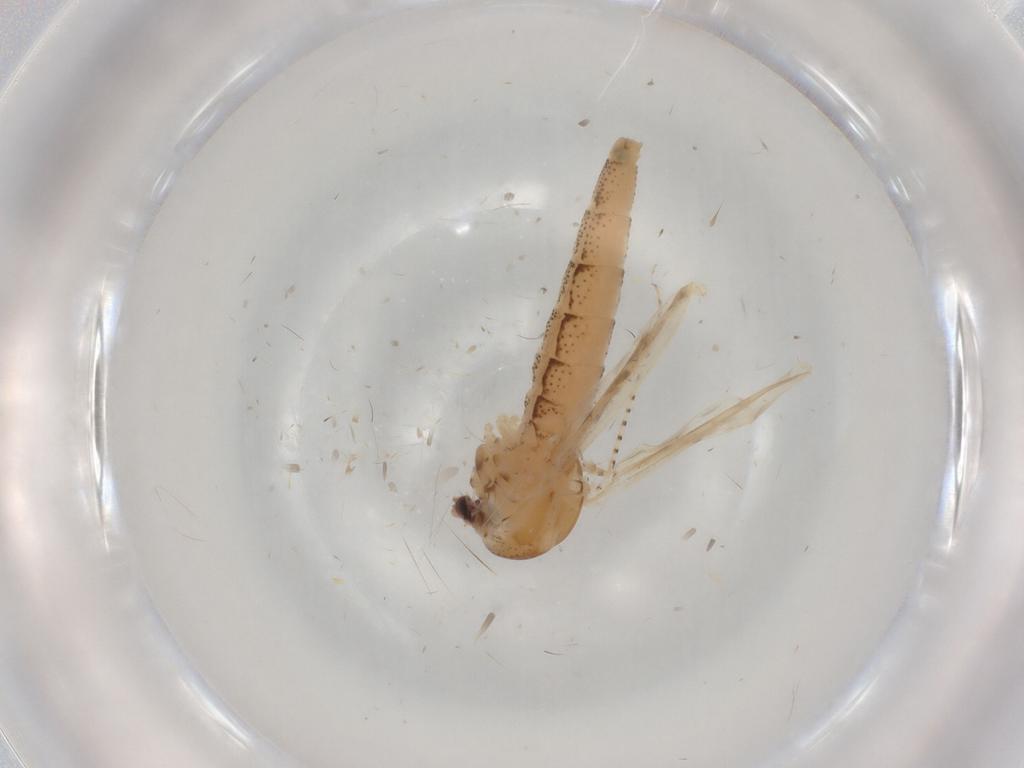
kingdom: Animalia
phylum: Arthropoda
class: Insecta
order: Diptera
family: Chaoboridae
